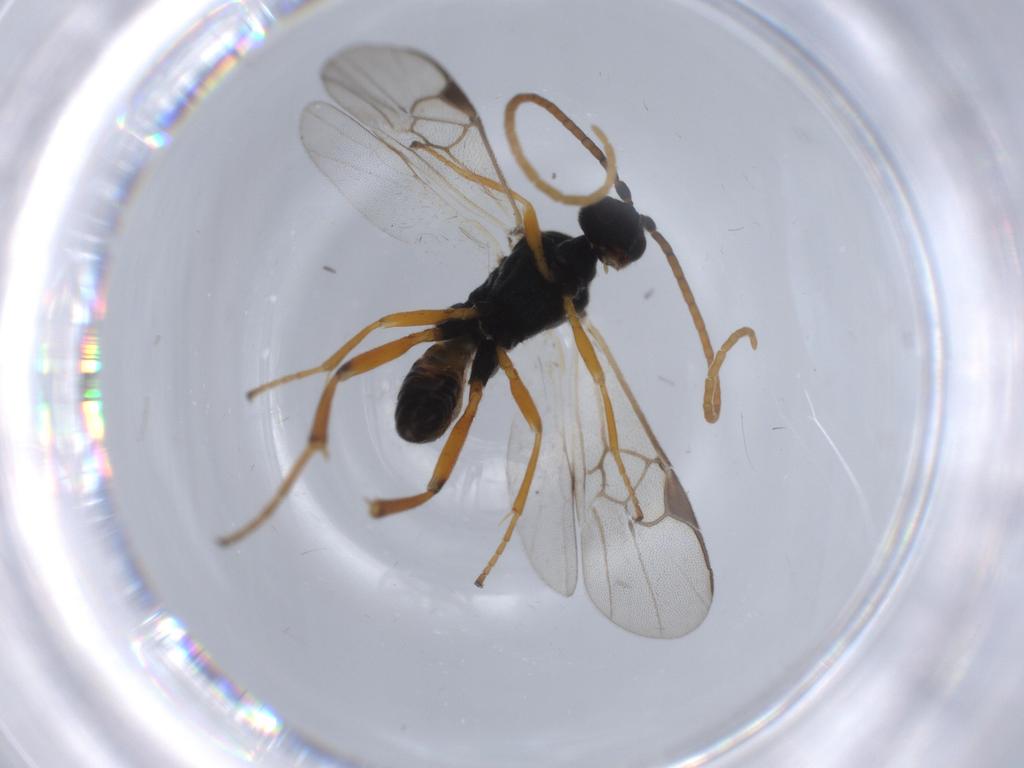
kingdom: Animalia
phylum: Arthropoda
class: Insecta
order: Hymenoptera
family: Braconidae
